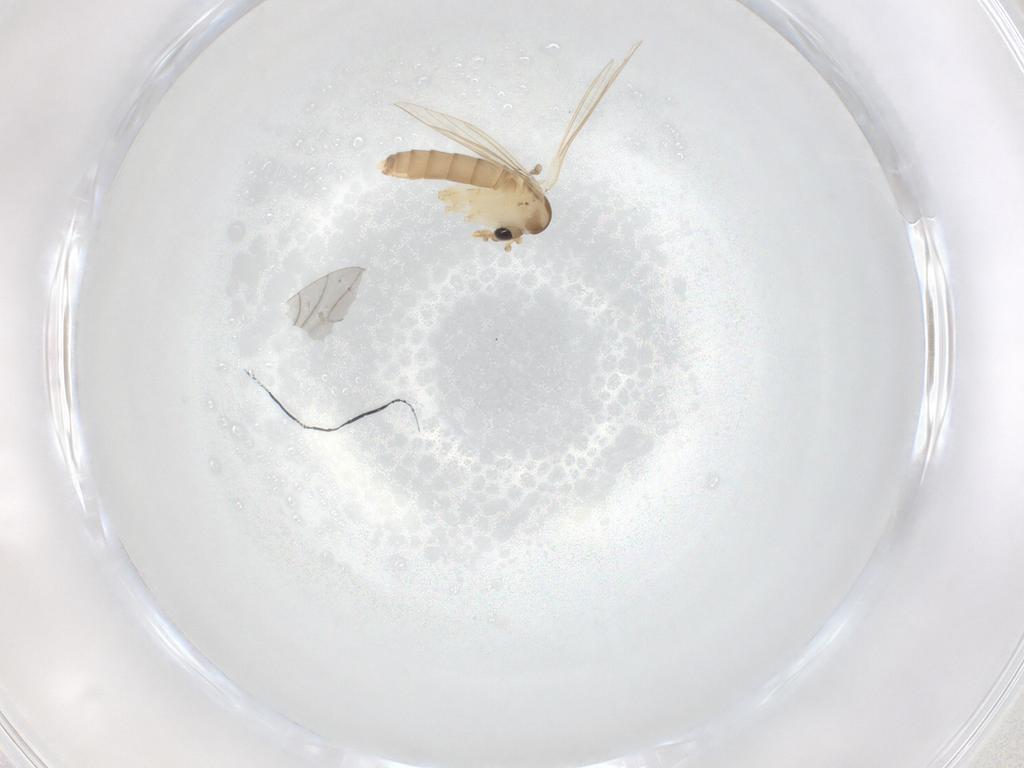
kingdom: Animalia
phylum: Arthropoda
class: Insecta
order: Diptera
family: Psychodidae
